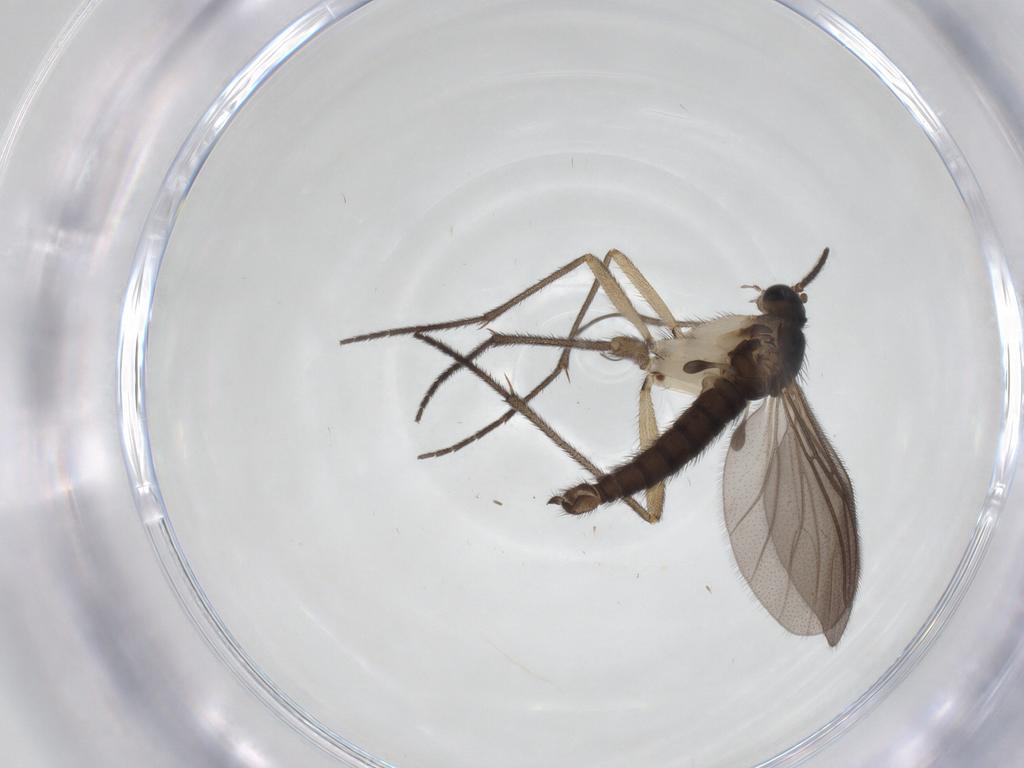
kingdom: Animalia
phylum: Arthropoda
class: Insecta
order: Diptera
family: Sciaridae
